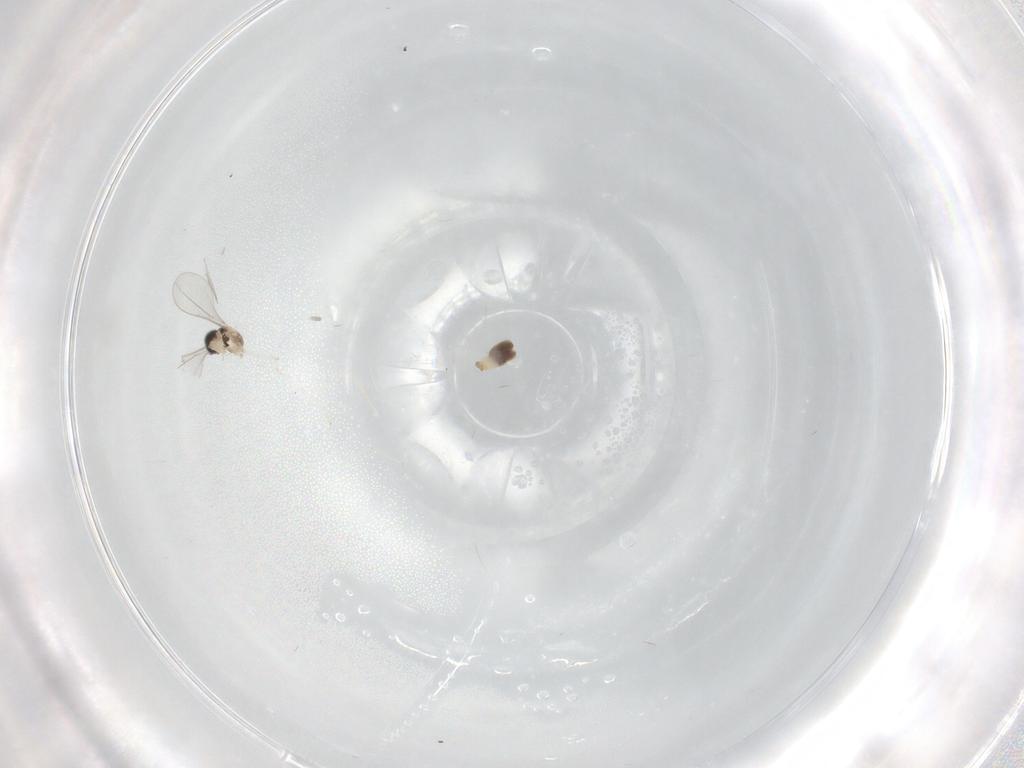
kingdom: Animalia
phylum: Arthropoda
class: Insecta
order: Diptera
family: Cecidomyiidae
